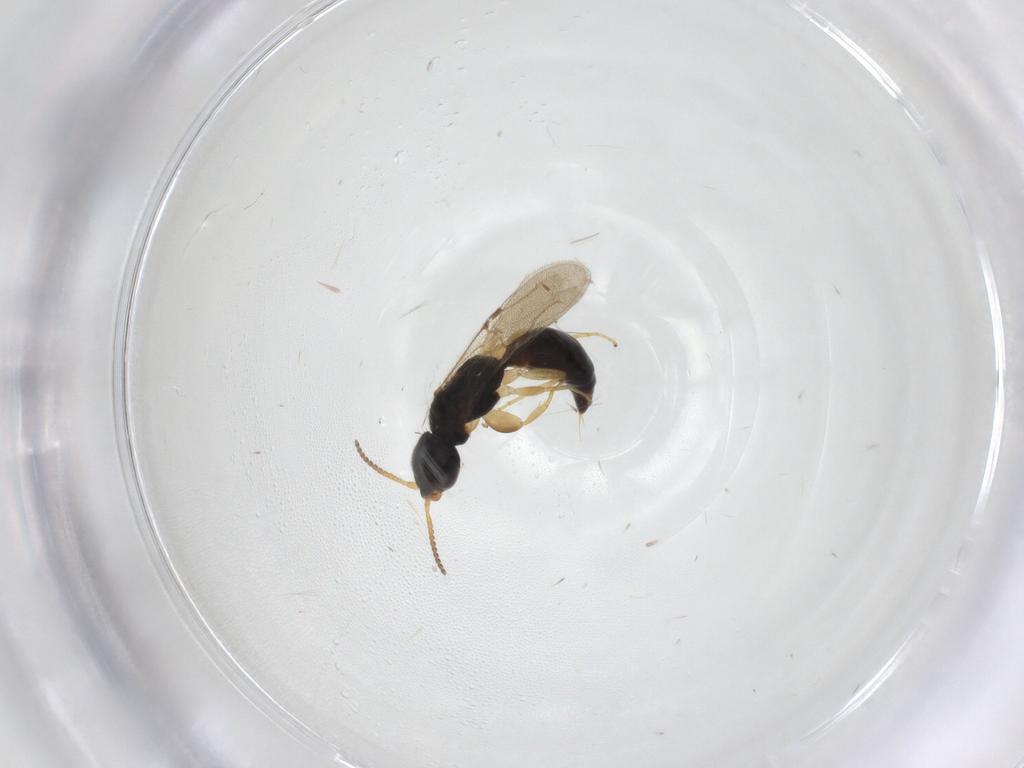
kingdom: Animalia
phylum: Arthropoda
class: Insecta
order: Hymenoptera
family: Bethylidae
